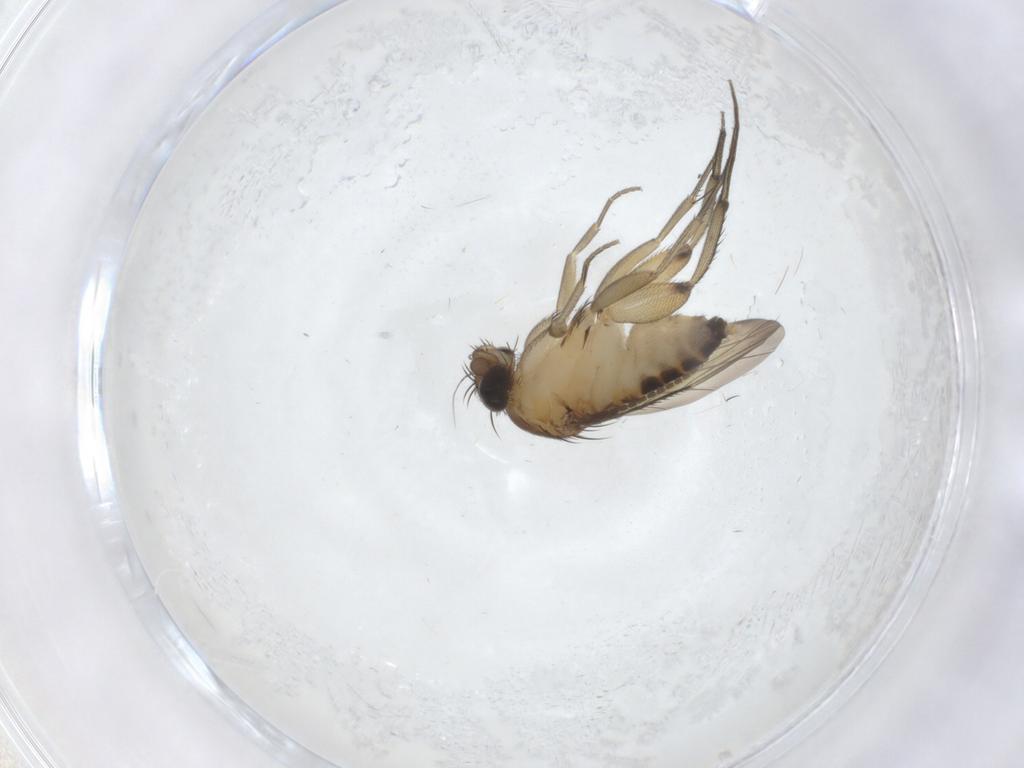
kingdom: Animalia
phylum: Arthropoda
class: Insecta
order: Diptera
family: Phoridae
